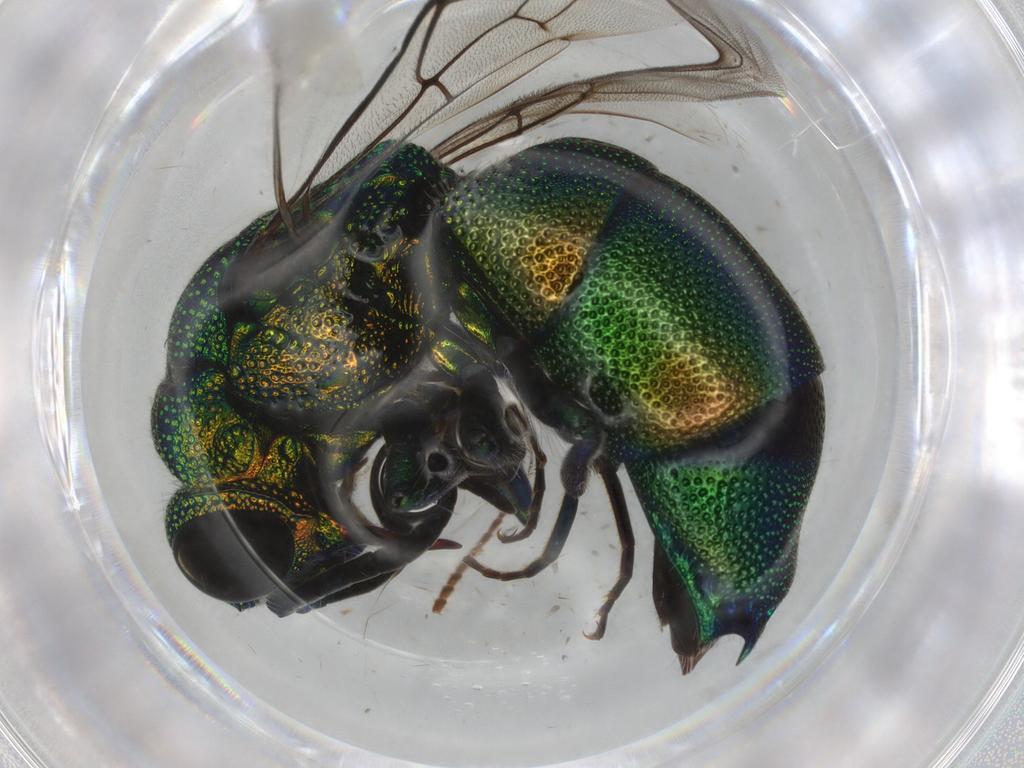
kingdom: Animalia
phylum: Arthropoda
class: Insecta
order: Hymenoptera
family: Chrysididae
